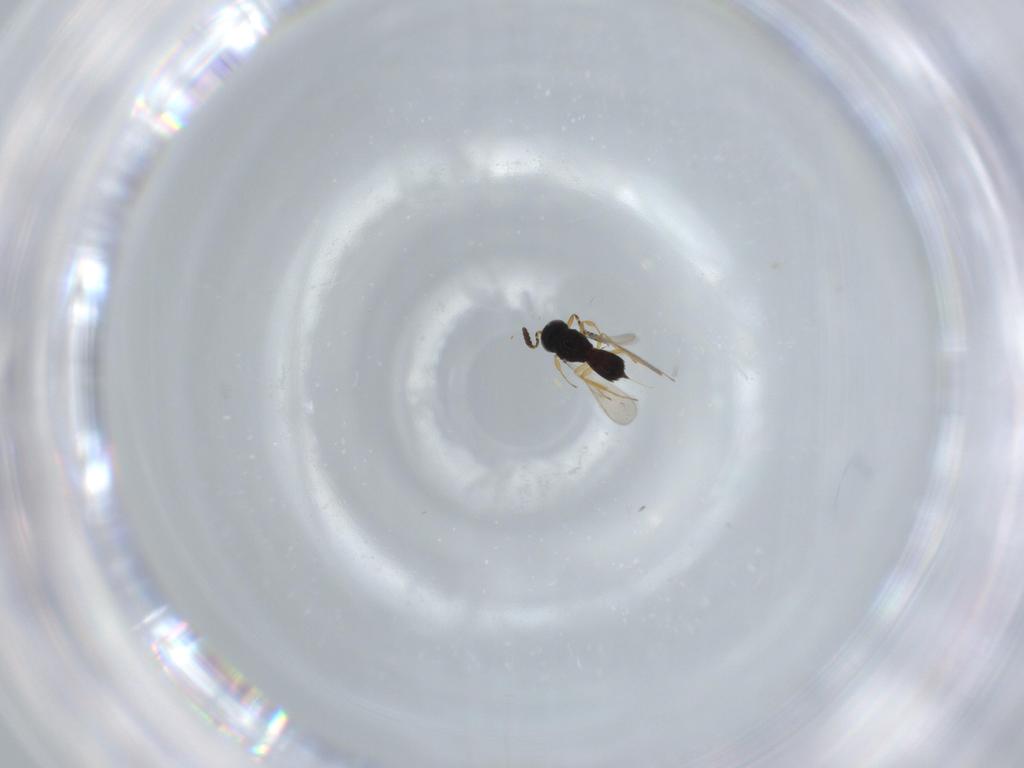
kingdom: Animalia
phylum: Arthropoda
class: Insecta
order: Hymenoptera
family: Scelionidae
